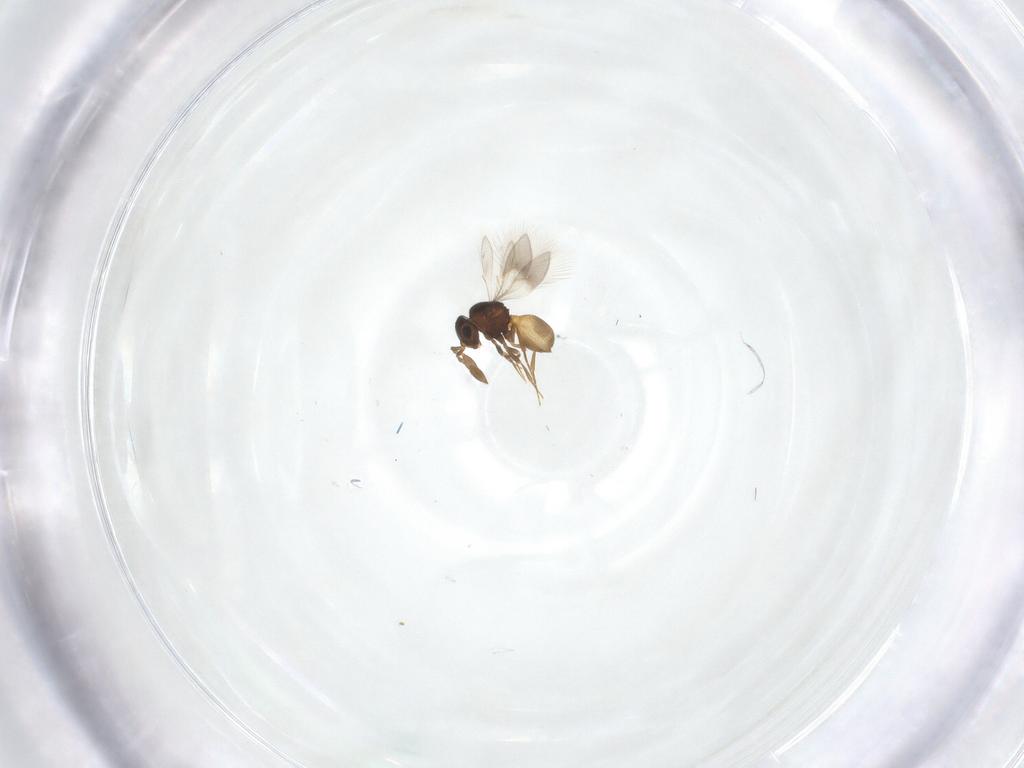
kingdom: Animalia
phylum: Arthropoda
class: Insecta
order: Hymenoptera
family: Scelionidae
